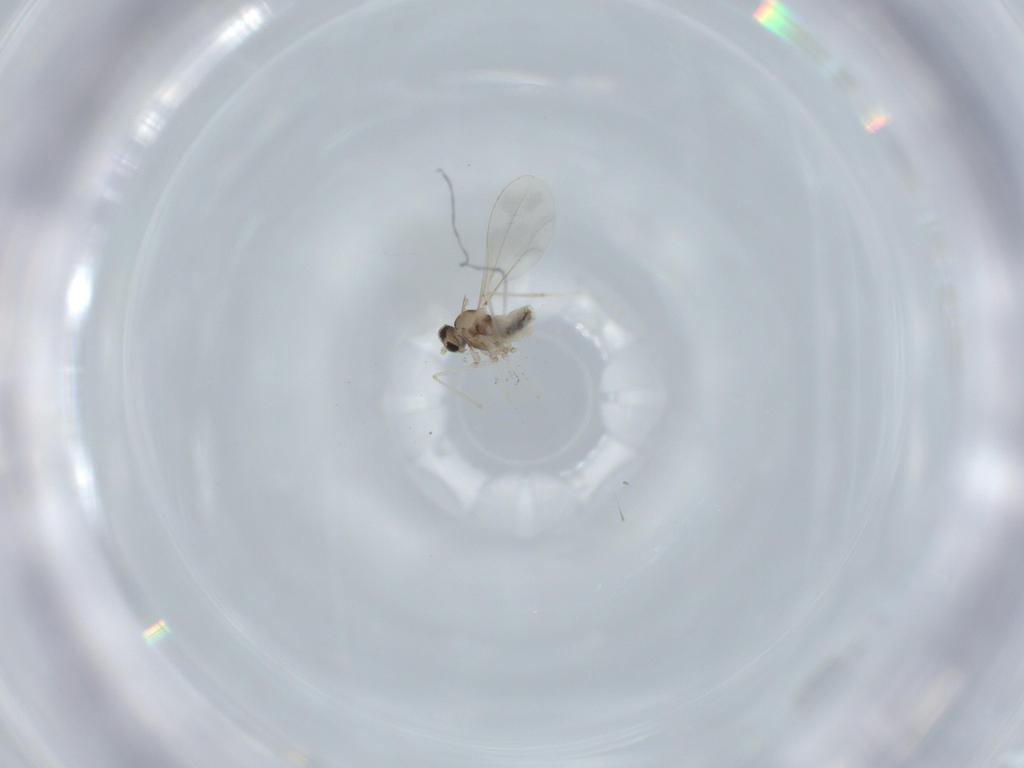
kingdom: Animalia
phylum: Arthropoda
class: Insecta
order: Diptera
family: Cecidomyiidae
